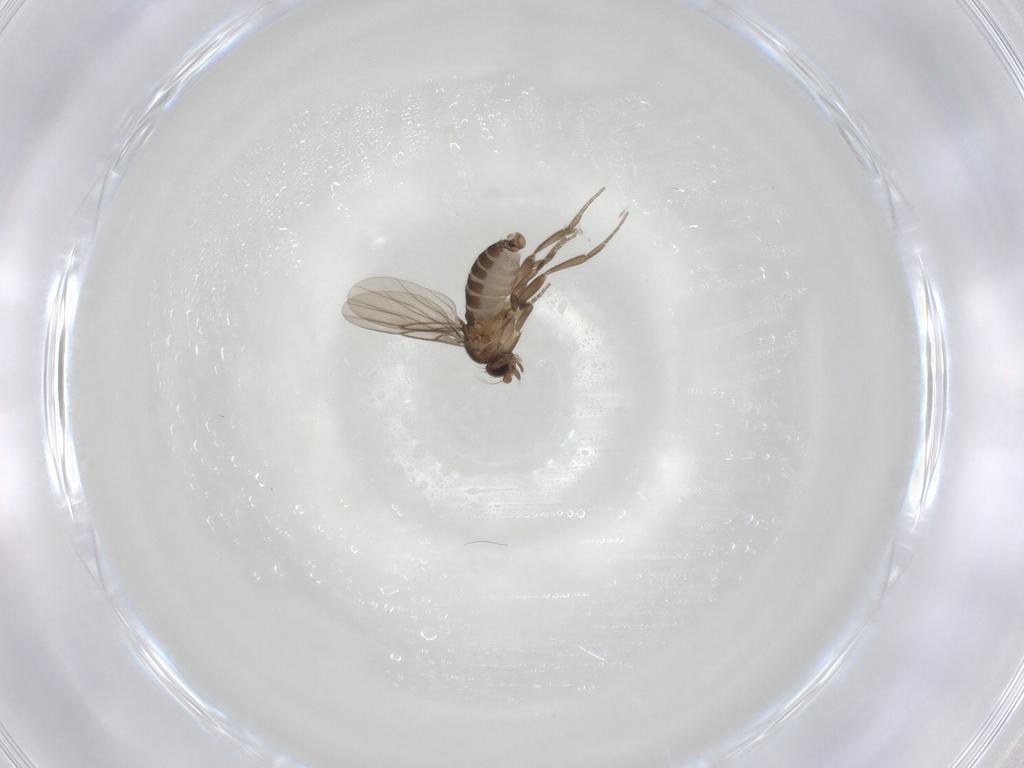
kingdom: Animalia
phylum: Arthropoda
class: Insecta
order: Diptera
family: Phoridae
